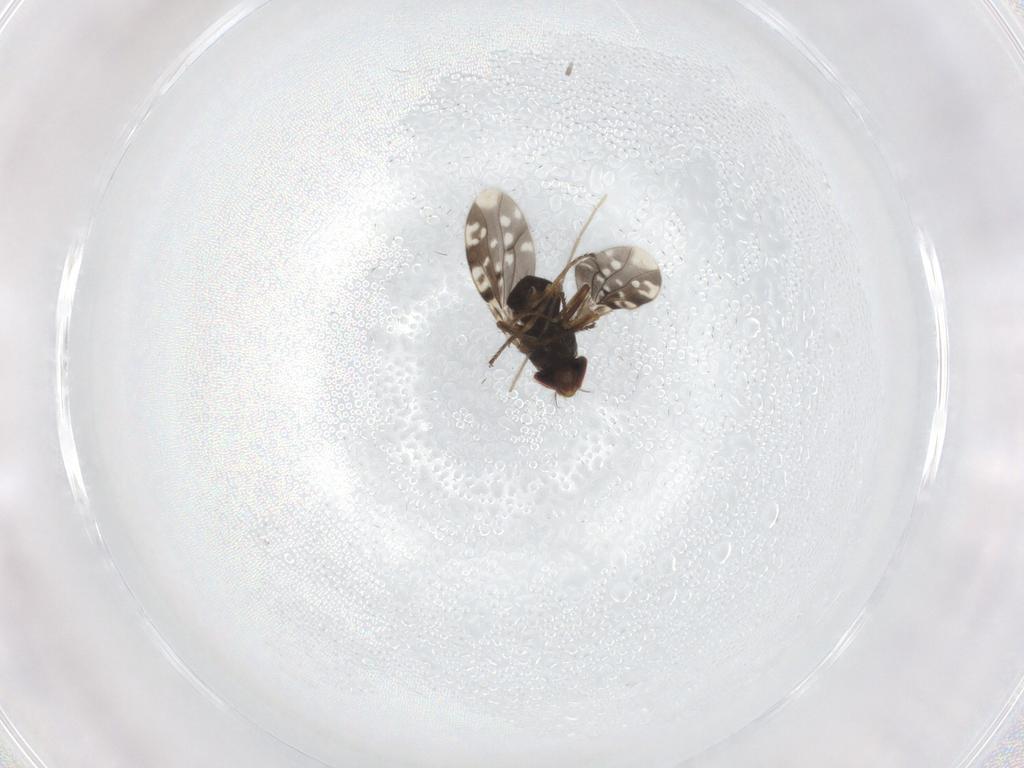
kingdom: Animalia
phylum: Arthropoda
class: Insecta
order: Diptera
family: Ephydridae
